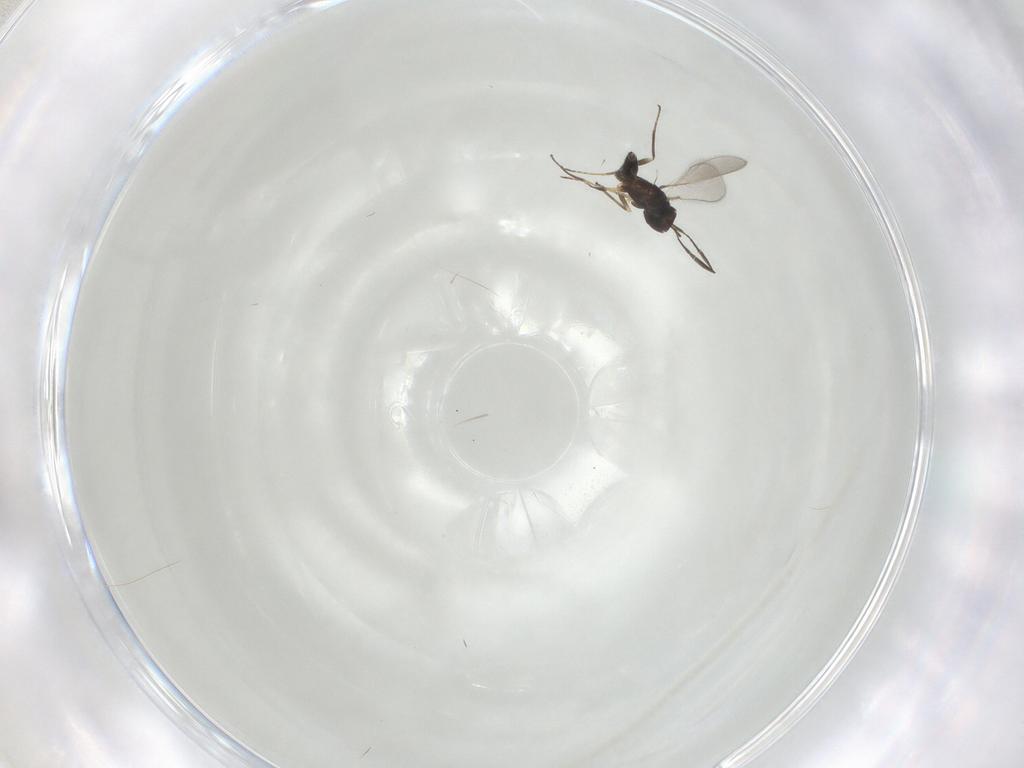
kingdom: Animalia
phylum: Arthropoda
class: Insecta
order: Hymenoptera
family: Mymaridae
